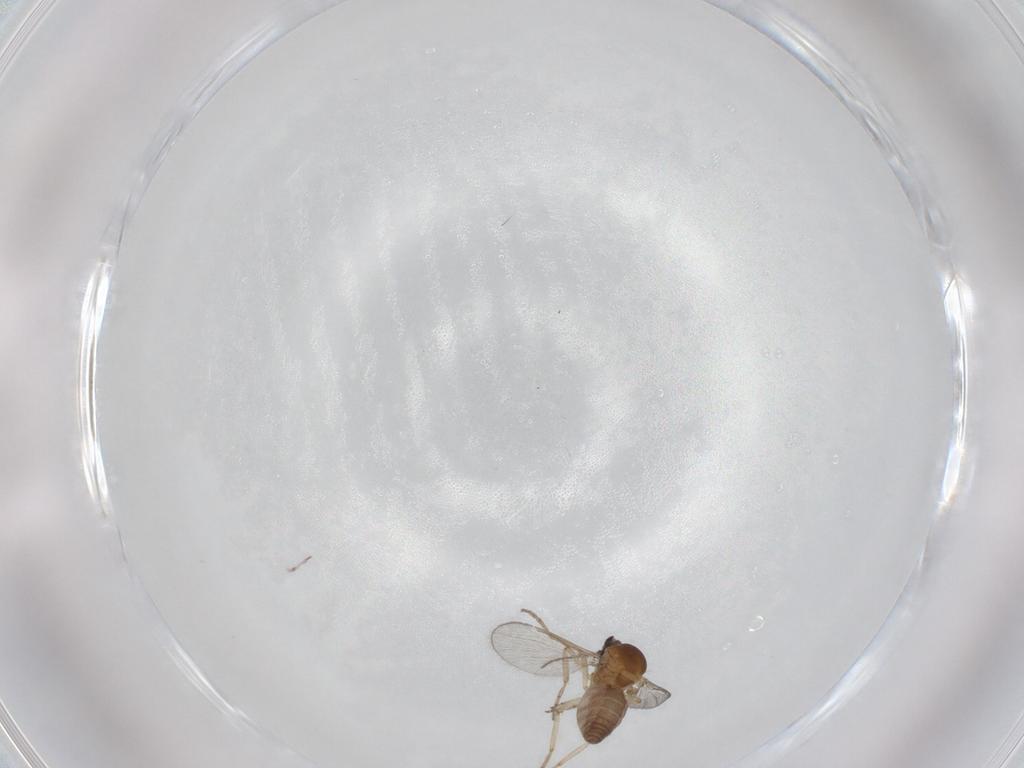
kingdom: Animalia
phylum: Arthropoda
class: Insecta
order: Diptera
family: Ceratopogonidae
